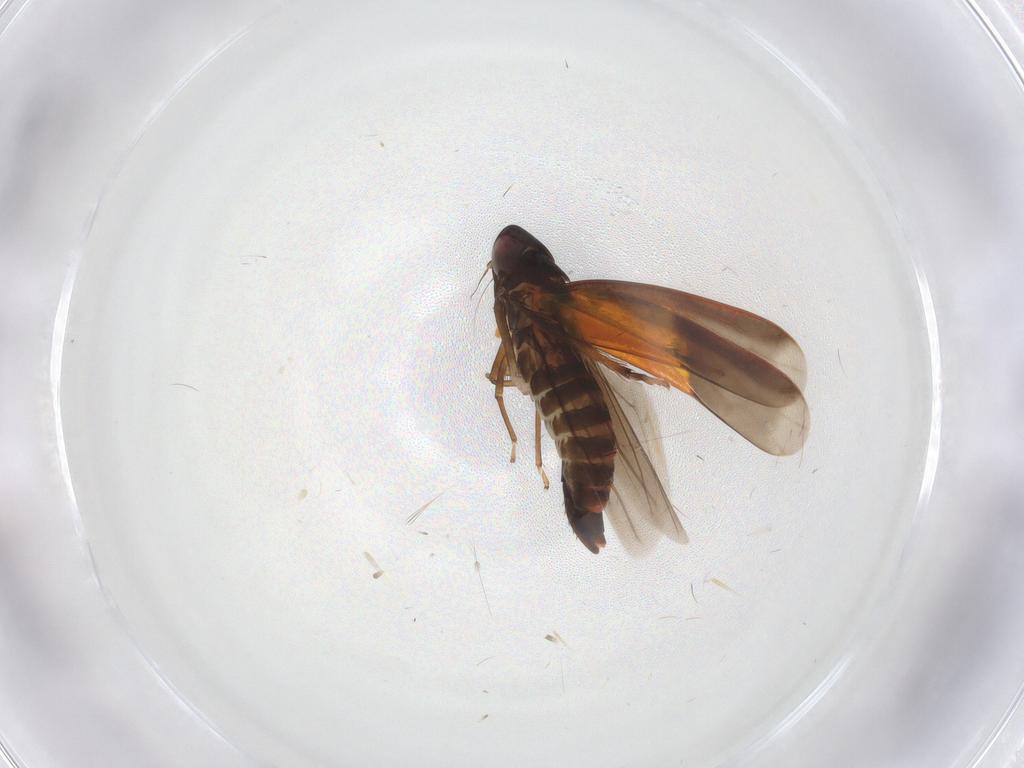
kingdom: Animalia
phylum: Arthropoda
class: Insecta
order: Hemiptera
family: Cicadellidae
